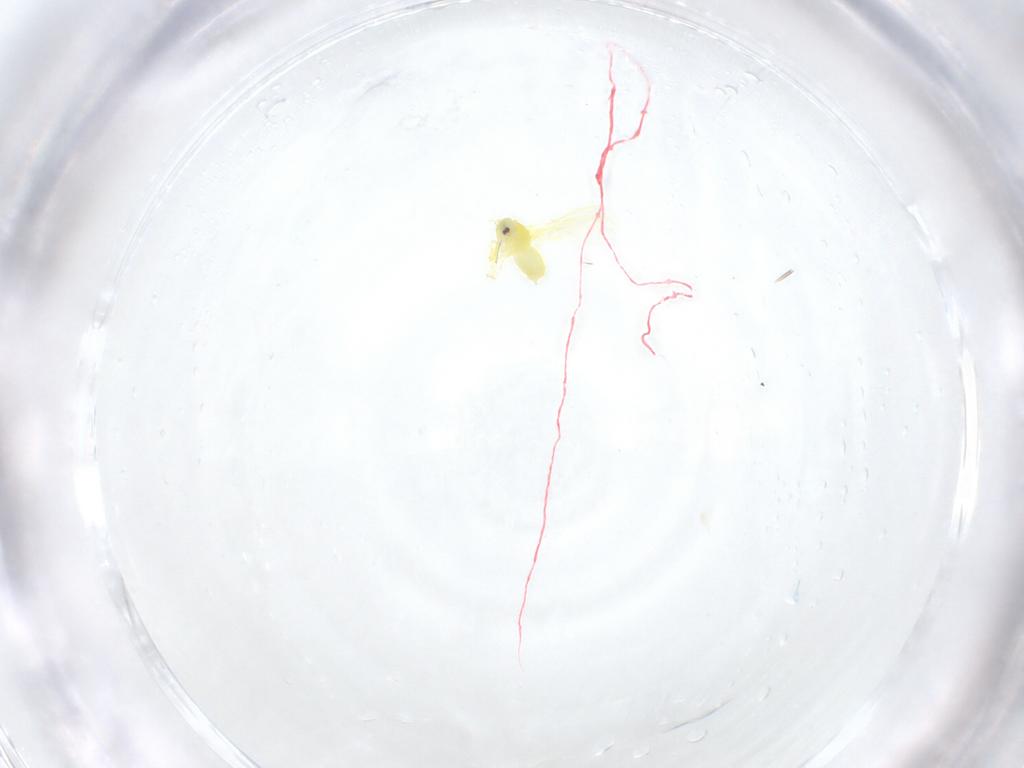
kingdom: Animalia
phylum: Arthropoda
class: Insecta
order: Hemiptera
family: Aleyrodidae
